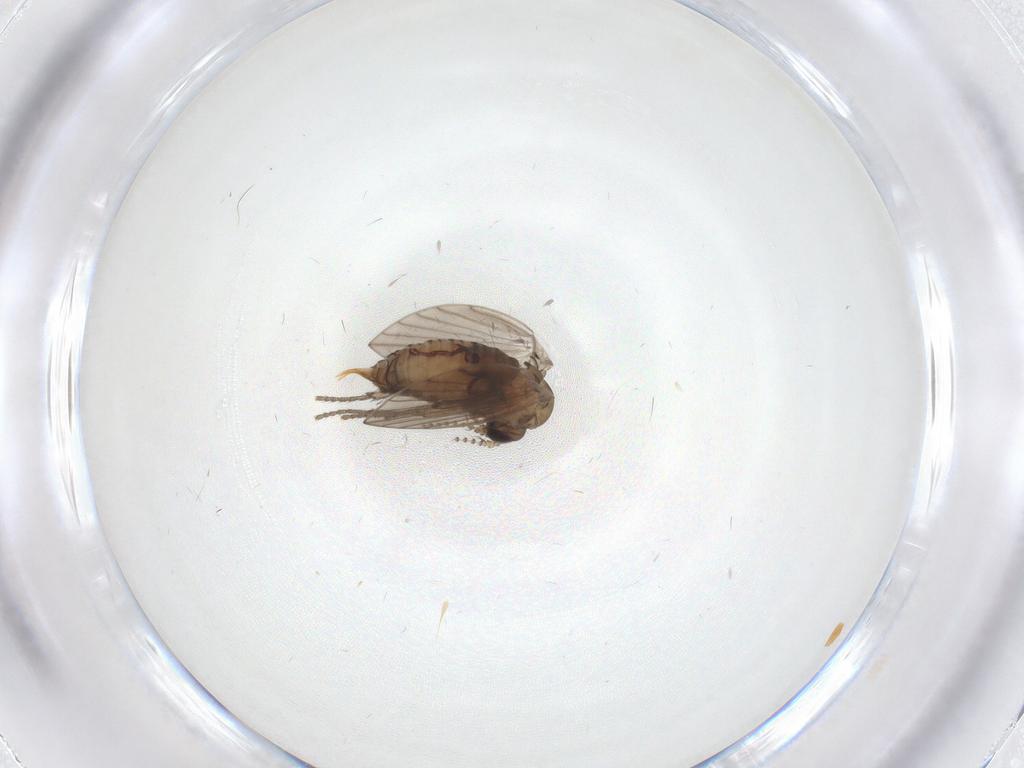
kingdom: Animalia
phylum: Arthropoda
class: Insecta
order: Diptera
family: Psychodidae
